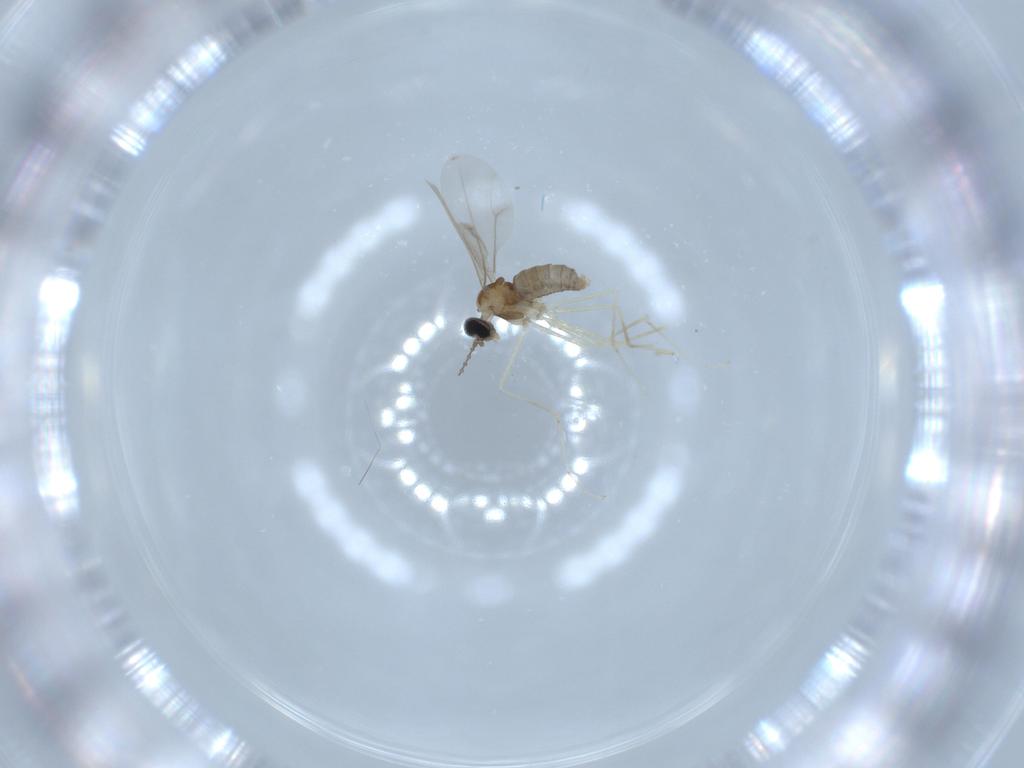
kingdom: Animalia
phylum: Arthropoda
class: Insecta
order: Diptera
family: Cecidomyiidae
